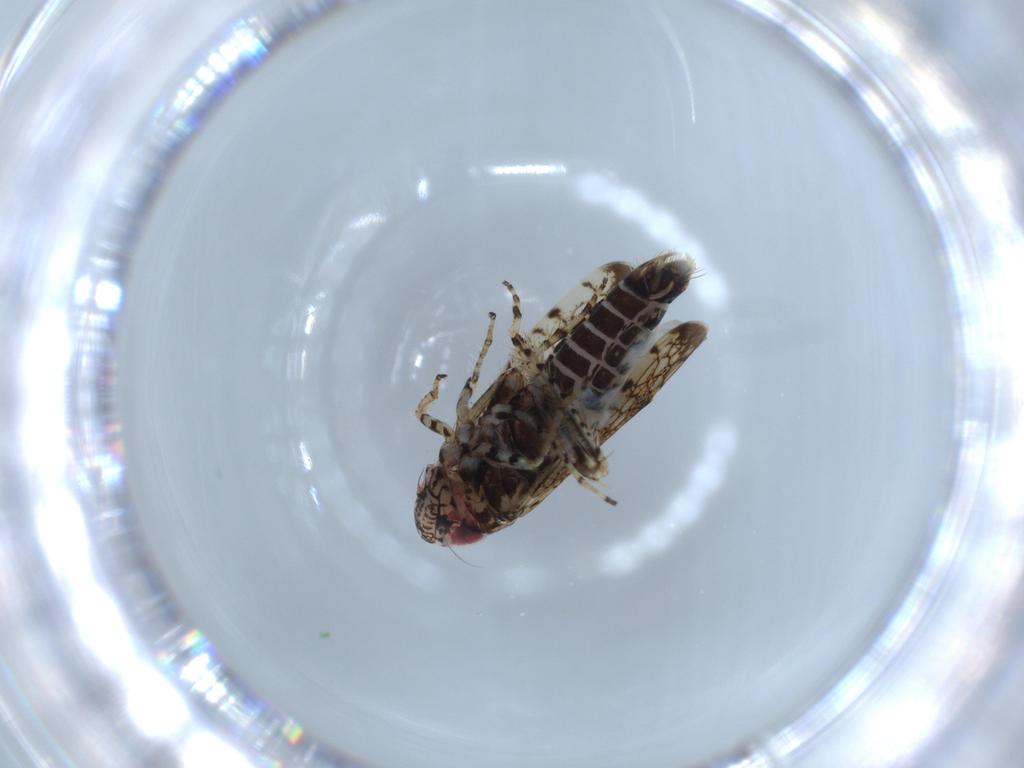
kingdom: Animalia
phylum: Arthropoda
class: Insecta
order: Hemiptera
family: Cicadellidae
